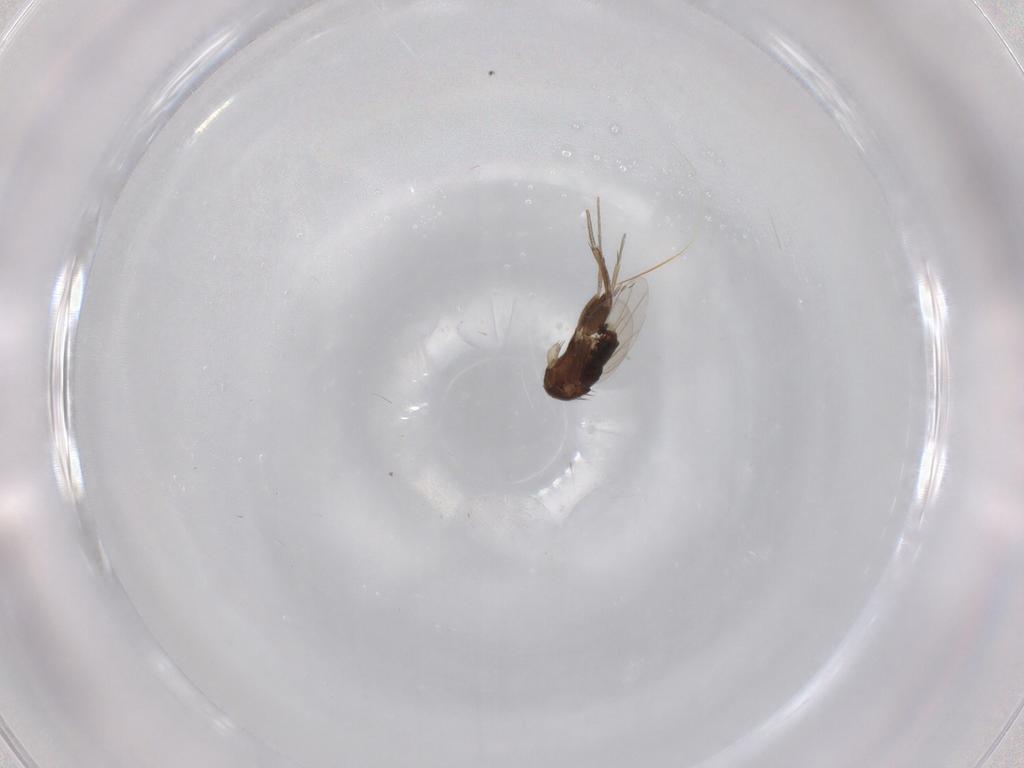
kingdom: Animalia
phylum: Arthropoda
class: Insecta
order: Diptera
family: Phoridae
